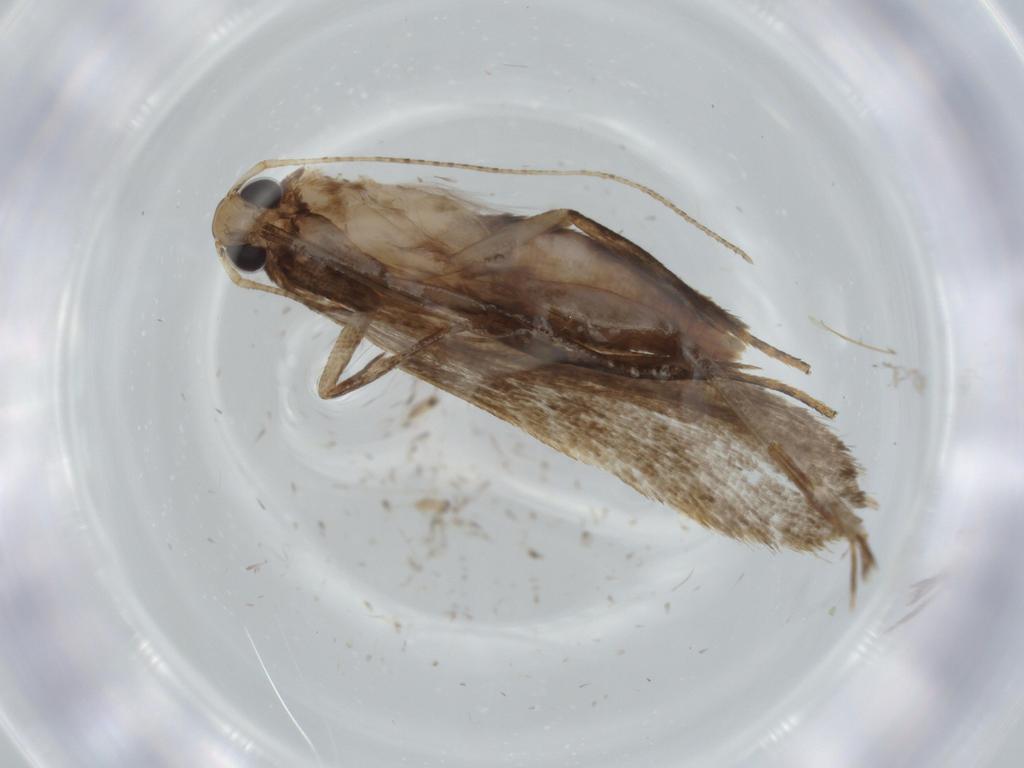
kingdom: Animalia
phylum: Arthropoda
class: Insecta
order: Lepidoptera
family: Tineidae
